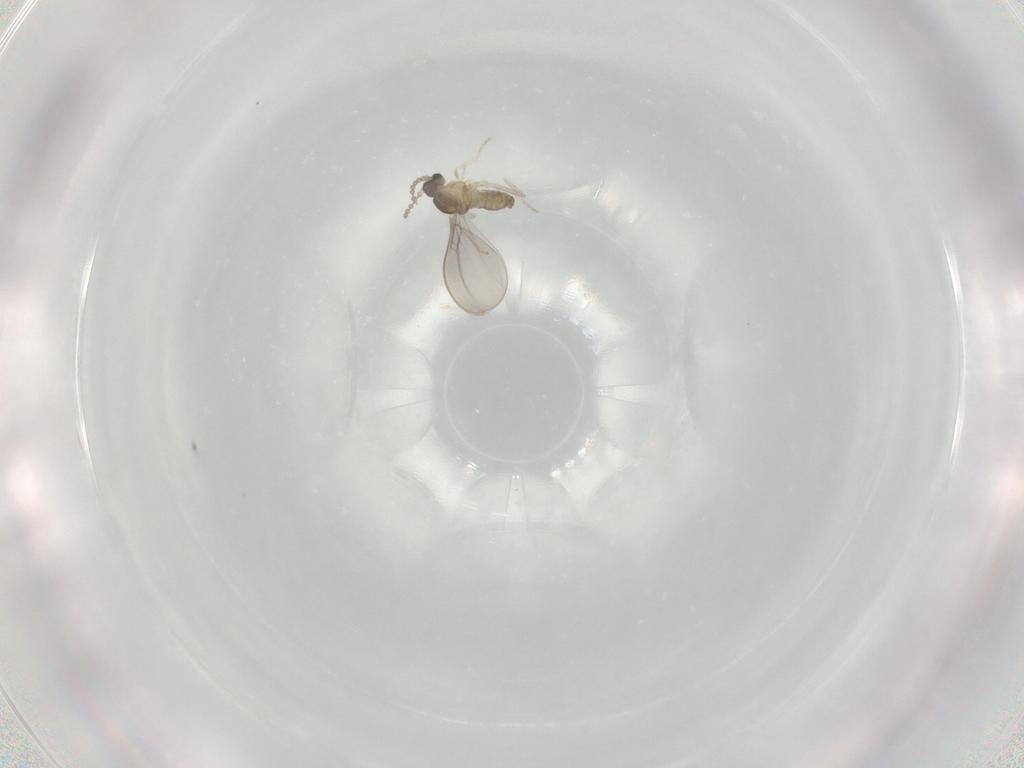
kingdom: Animalia
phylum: Arthropoda
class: Insecta
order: Diptera
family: Cecidomyiidae
